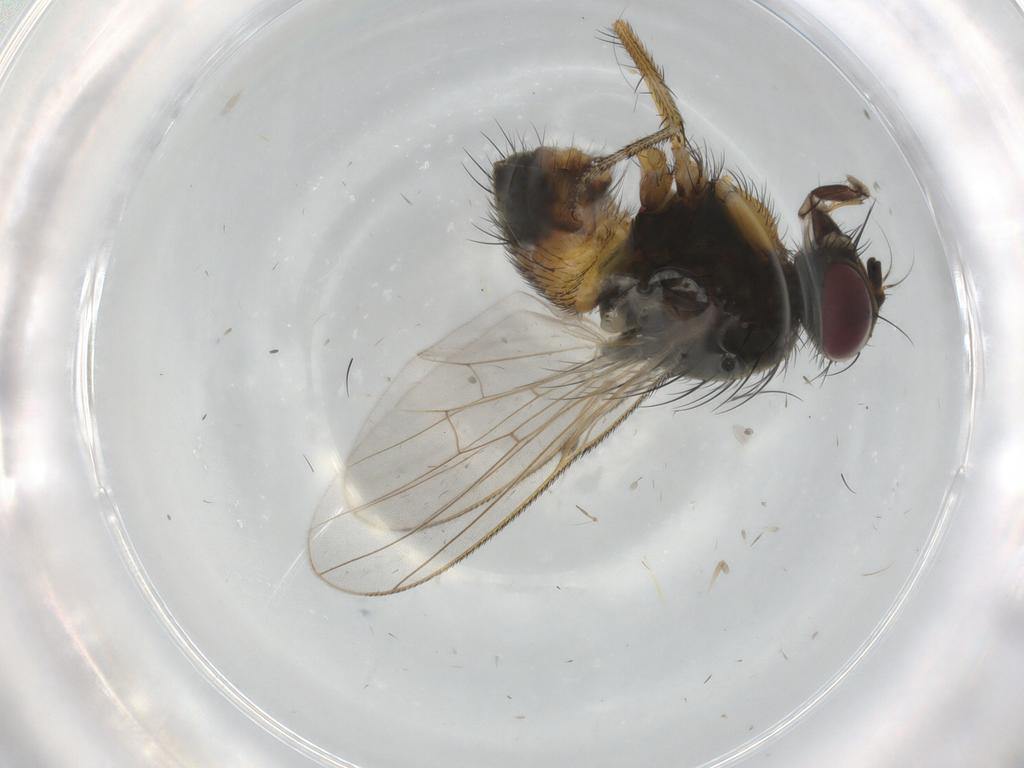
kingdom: Animalia
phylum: Arthropoda
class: Insecta
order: Diptera
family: Muscidae
